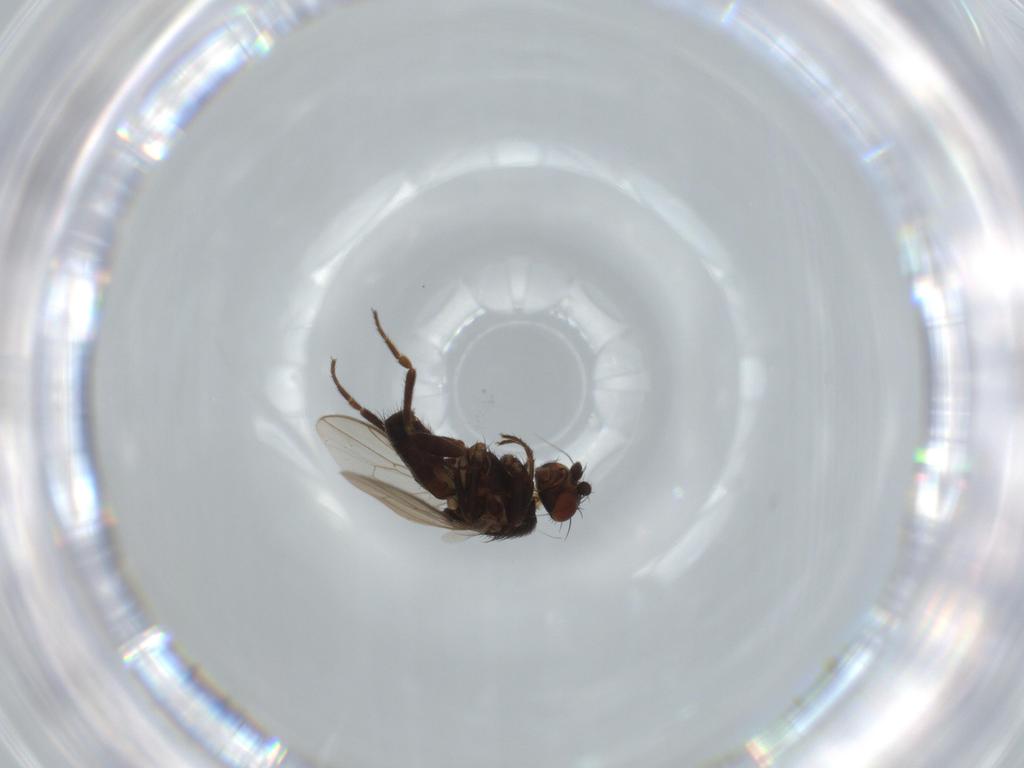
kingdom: Animalia
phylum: Arthropoda
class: Insecta
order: Diptera
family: Sphaeroceridae
